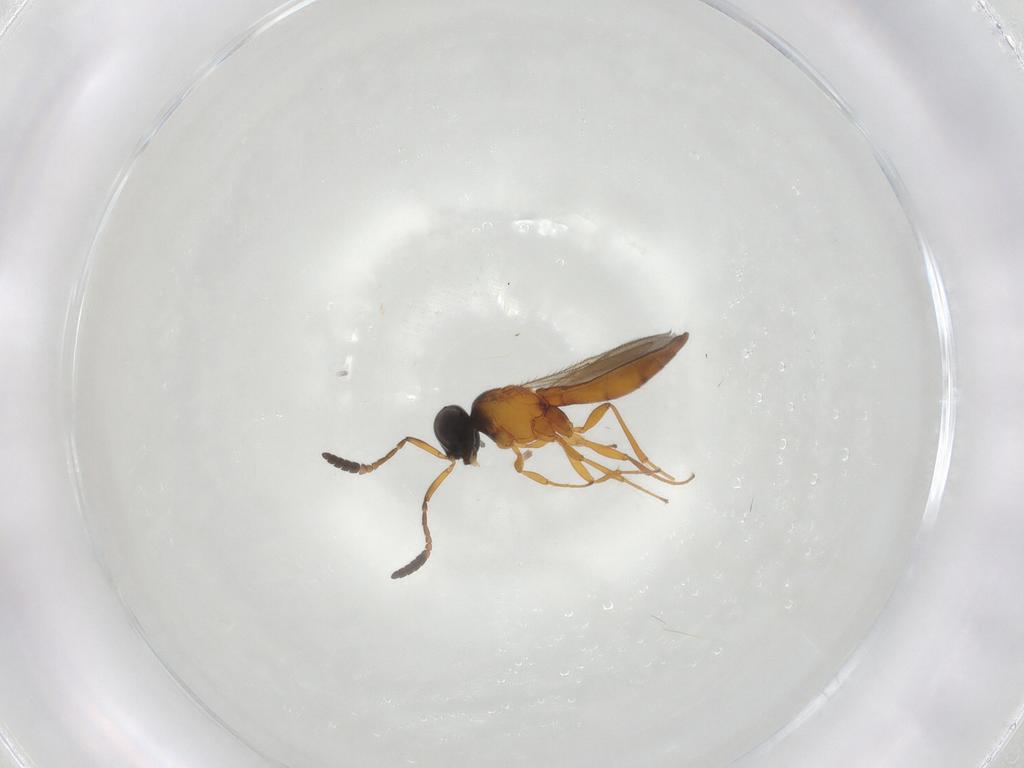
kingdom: Animalia
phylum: Arthropoda
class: Insecta
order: Hymenoptera
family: Scelionidae
